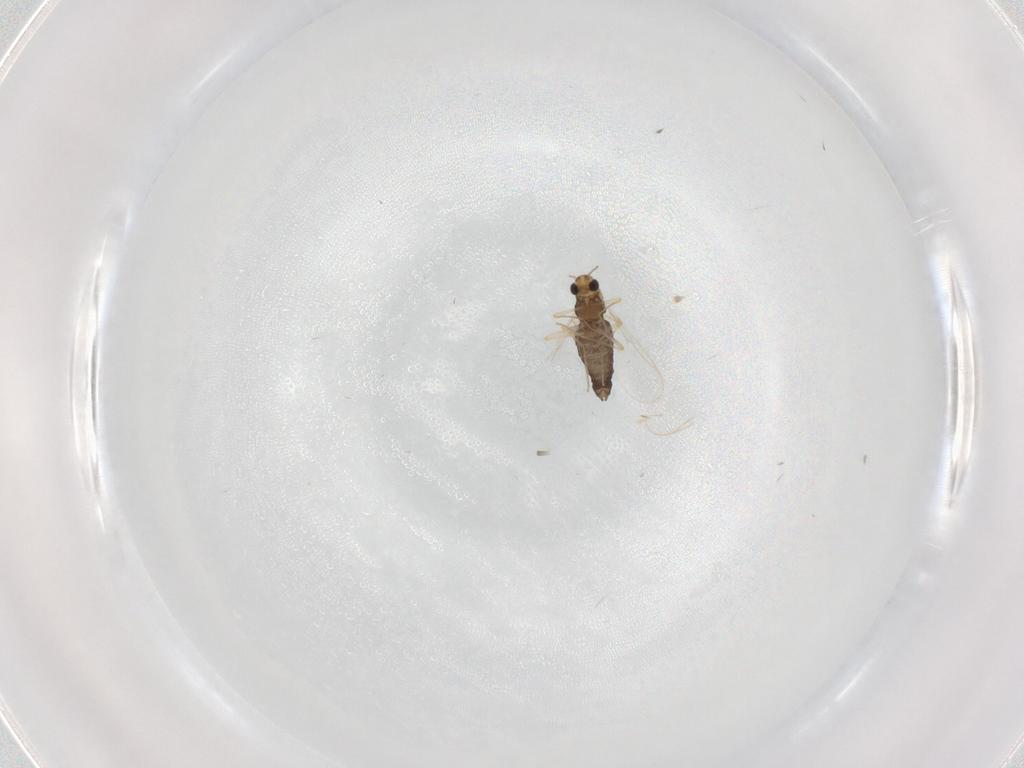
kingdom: Animalia
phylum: Arthropoda
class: Insecta
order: Diptera
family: Chironomidae
